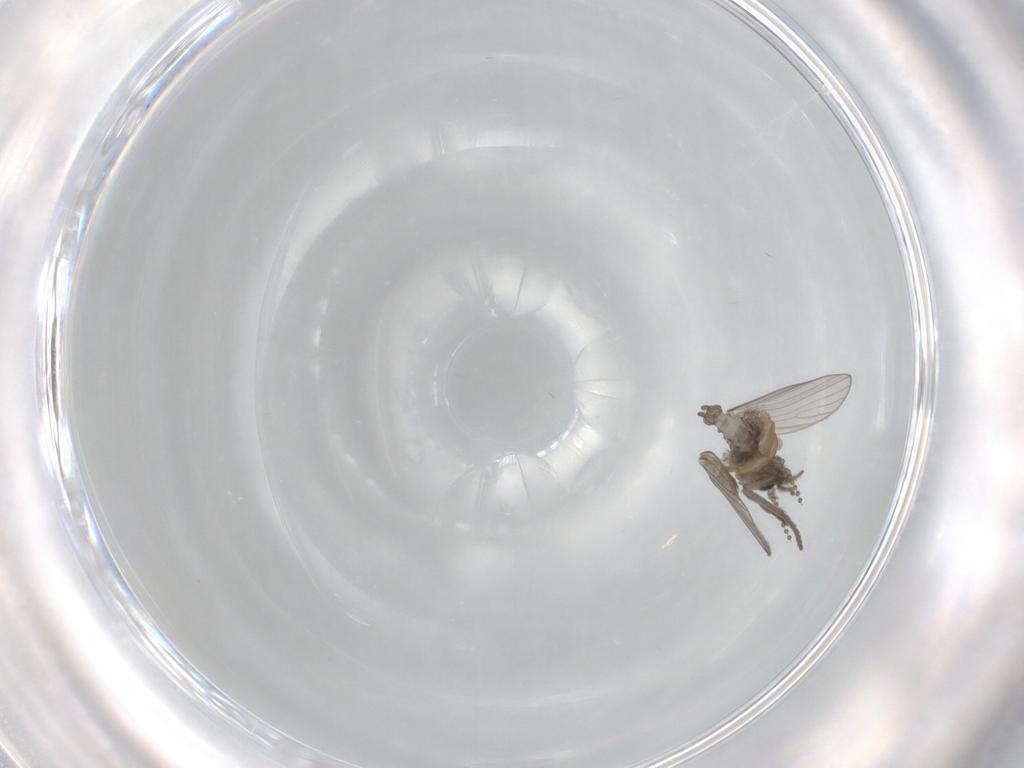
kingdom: Animalia
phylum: Arthropoda
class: Insecta
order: Diptera
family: Psychodidae
